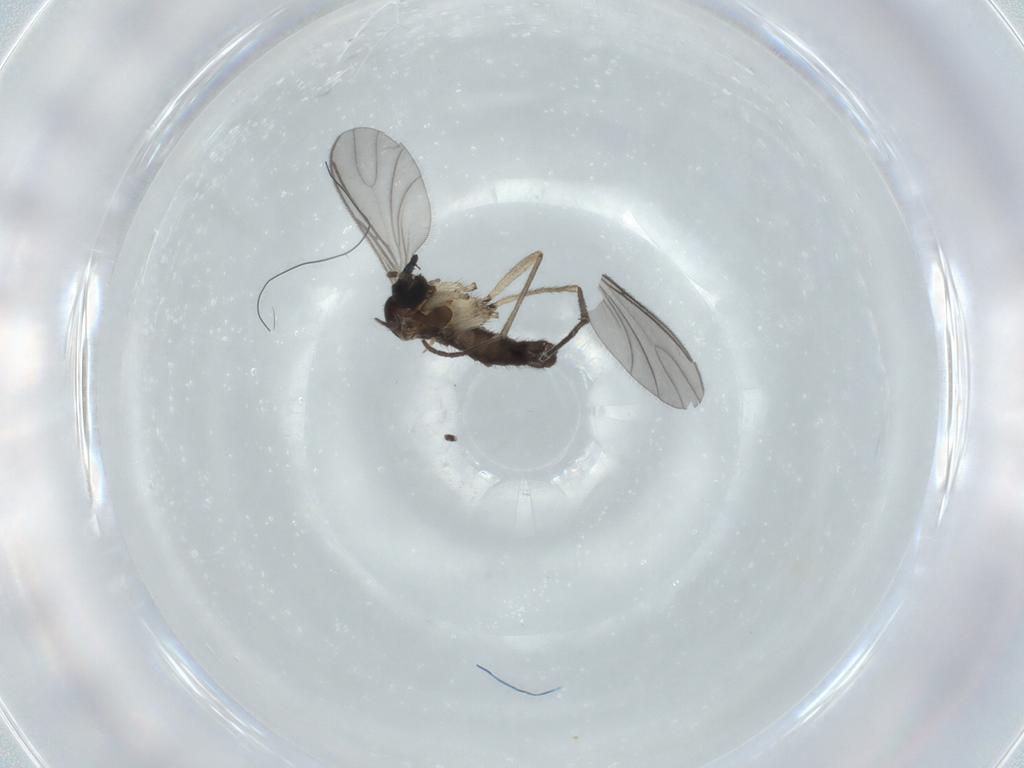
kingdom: Animalia
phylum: Arthropoda
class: Insecta
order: Diptera
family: Sciaridae
